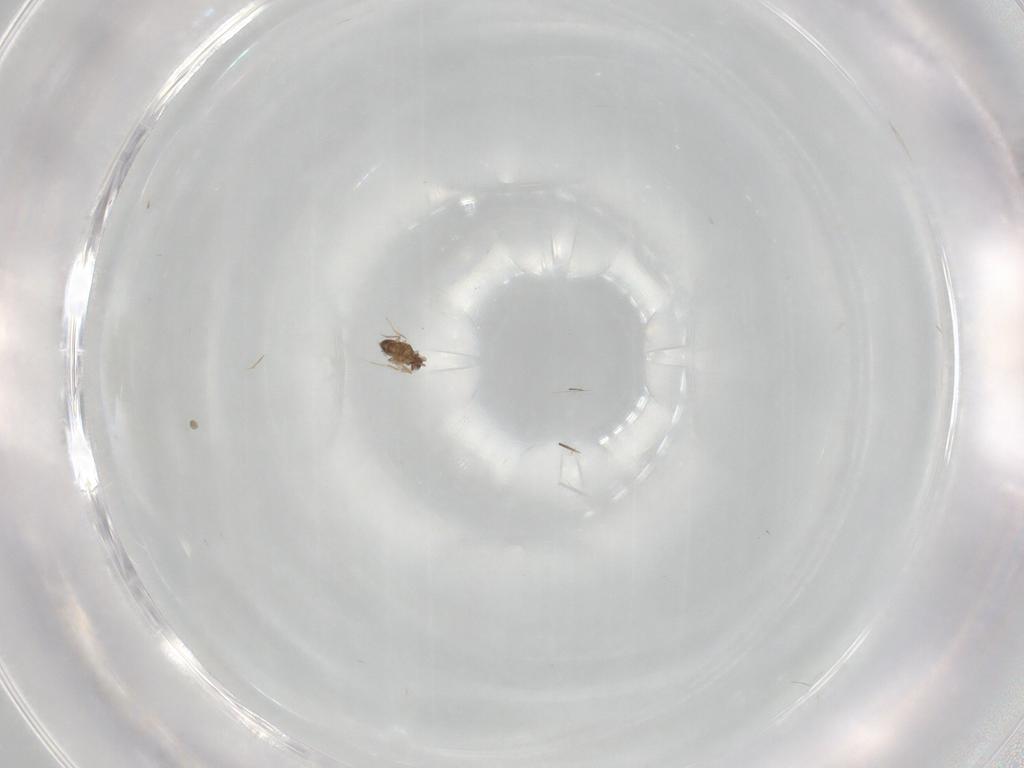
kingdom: Animalia
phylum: Arthropoda
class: Insecta
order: Hymenoptera
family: Mymaridae
